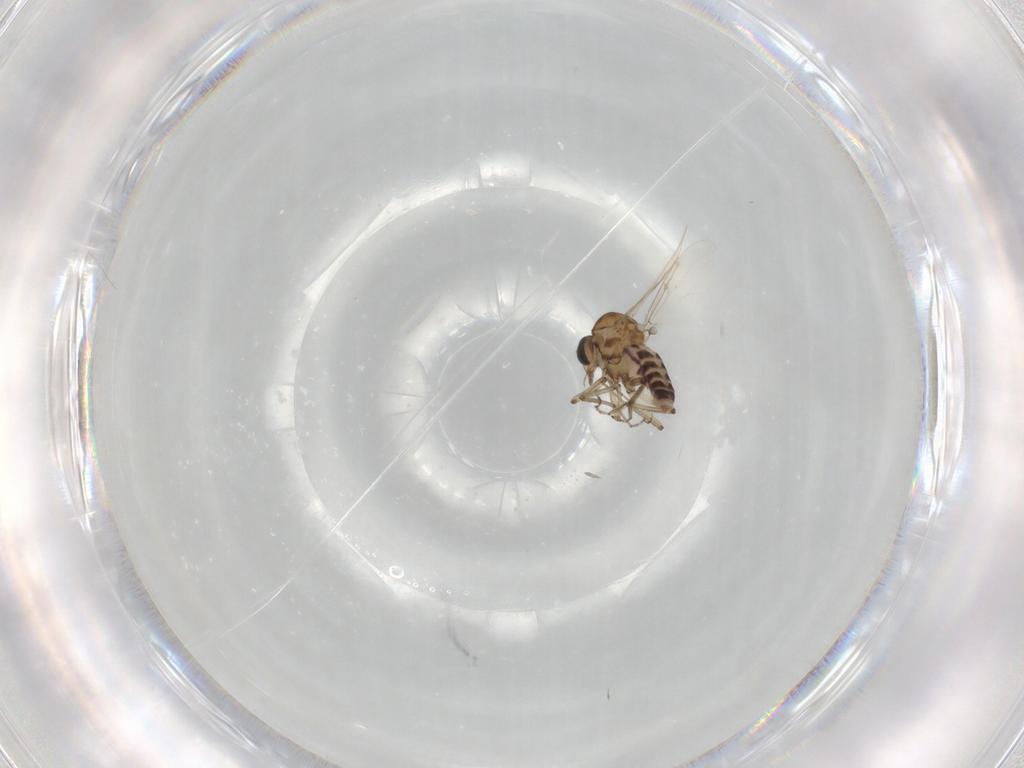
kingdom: Animalia
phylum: Arthropoda
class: Insecta
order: Diptera
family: Ceratopogonidae
